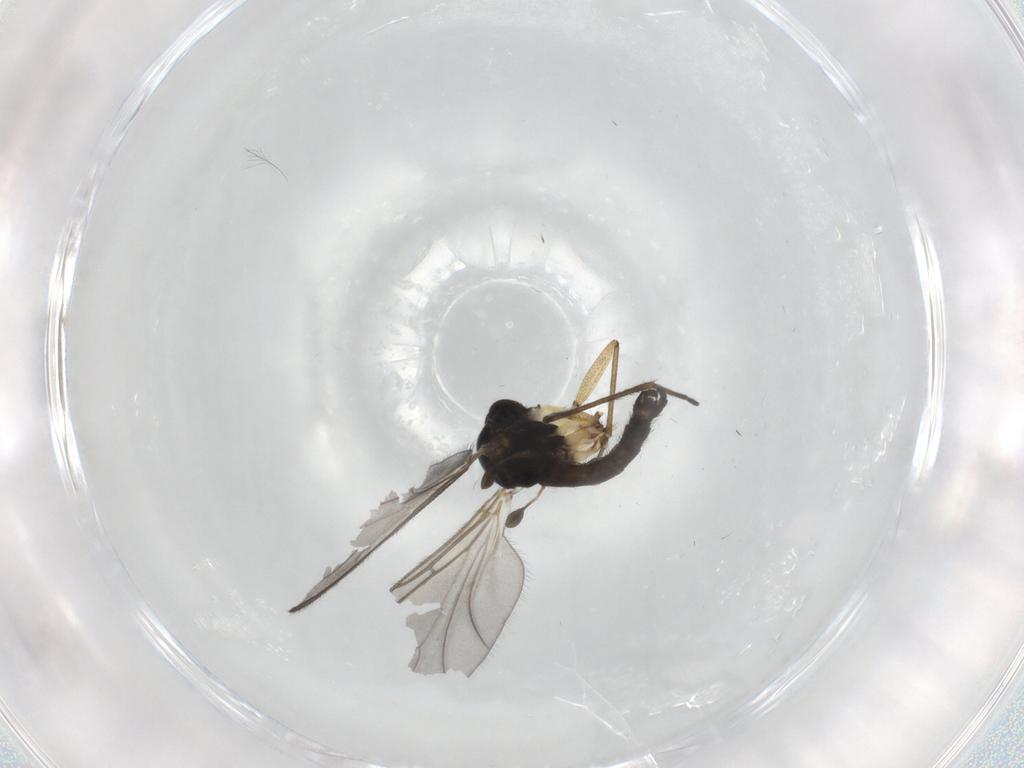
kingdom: Animalia
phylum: Arthropoda
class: Insecta
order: Diptera
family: Sciaridae
